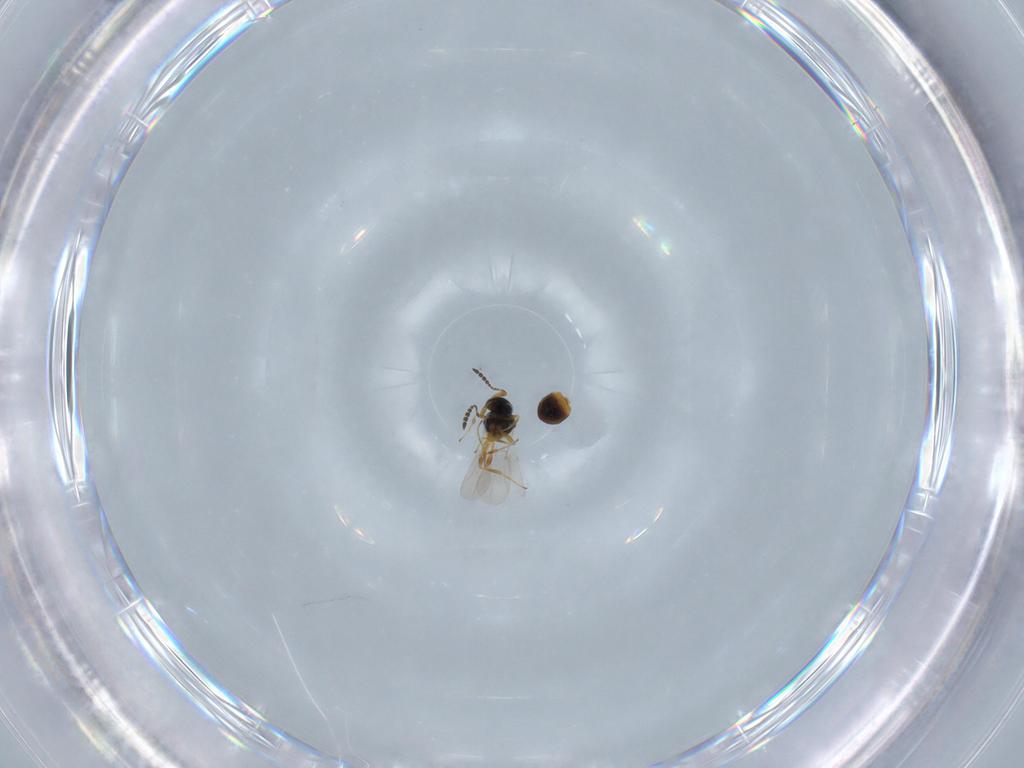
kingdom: Animalia
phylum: Arthropoda
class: Insecta
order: Hymenoptera
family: Platygastridae
